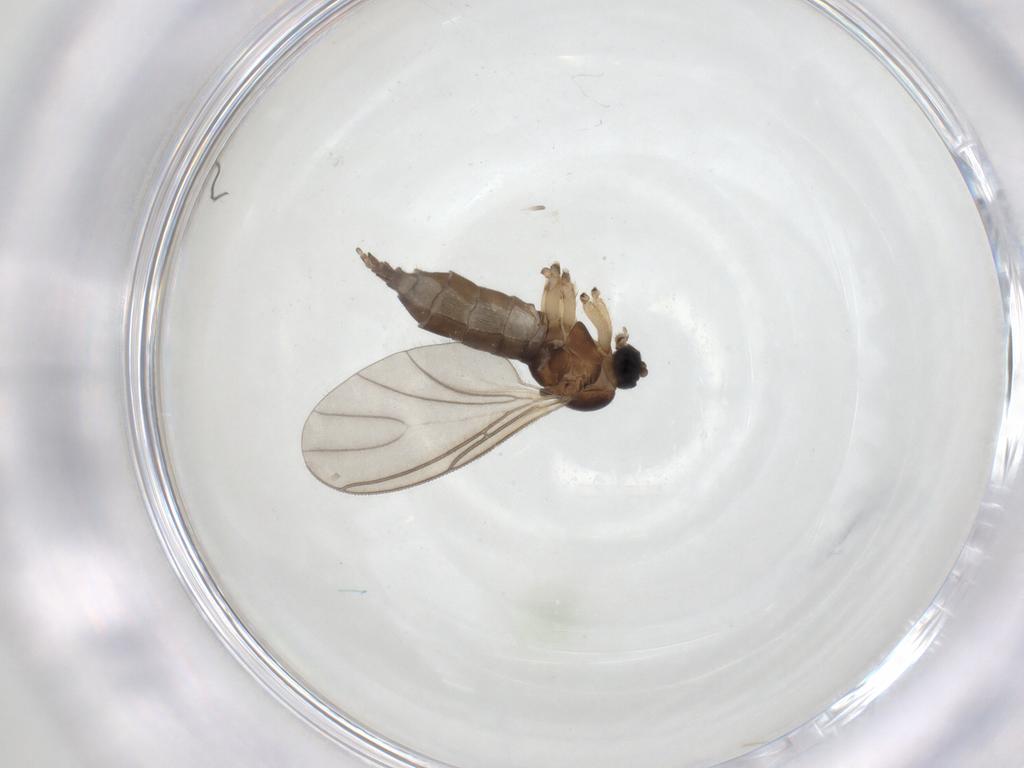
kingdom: Animalia
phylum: Arthropoda
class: Insecta
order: Diptera
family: Sciaridae
